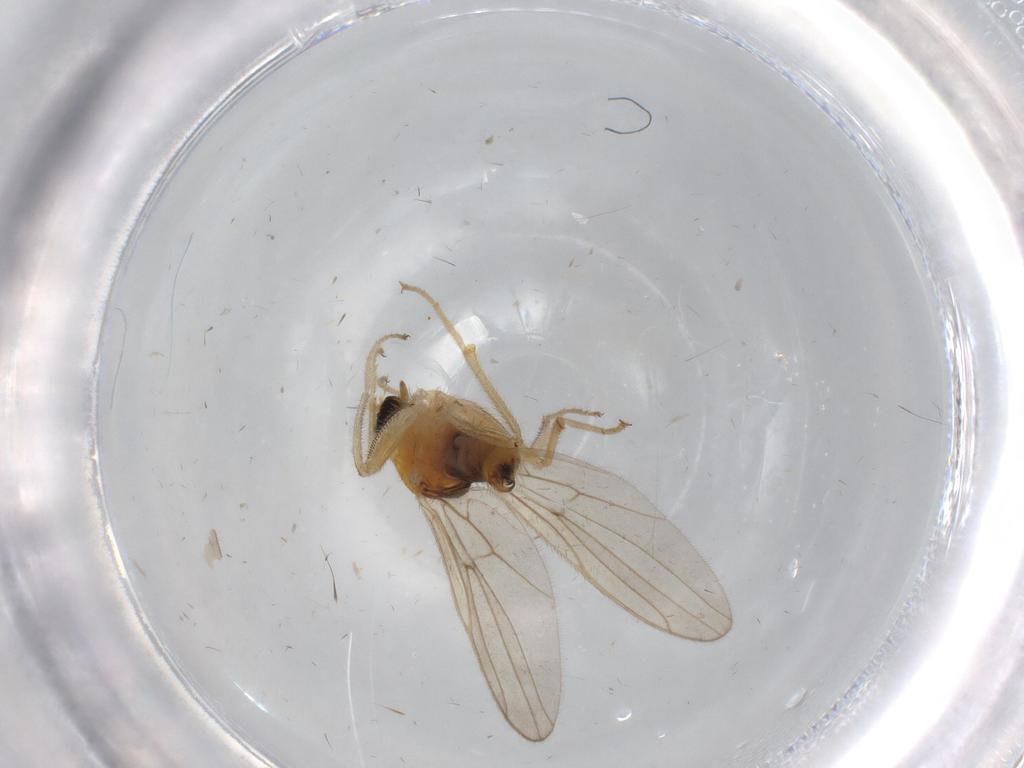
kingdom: Animalia
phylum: Arthropoda
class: Insecta
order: Diptera
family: Hybotidae
